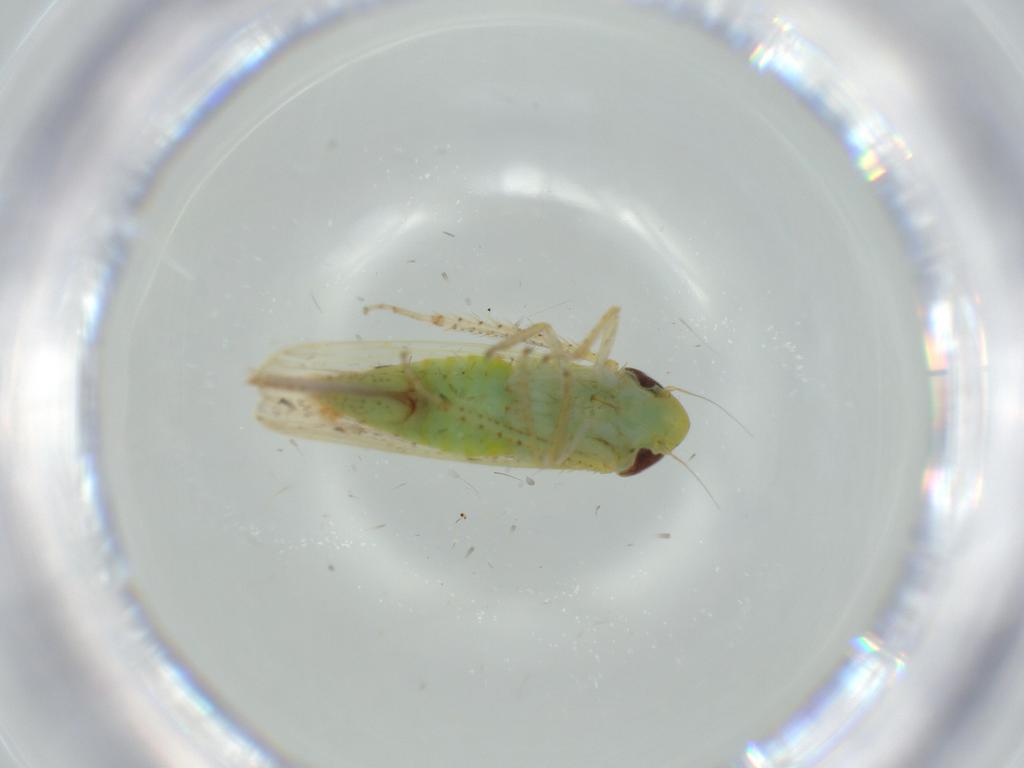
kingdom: Animalia
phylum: Arthropoda
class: Insecta
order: Hemiptera
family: Cicadellidae
